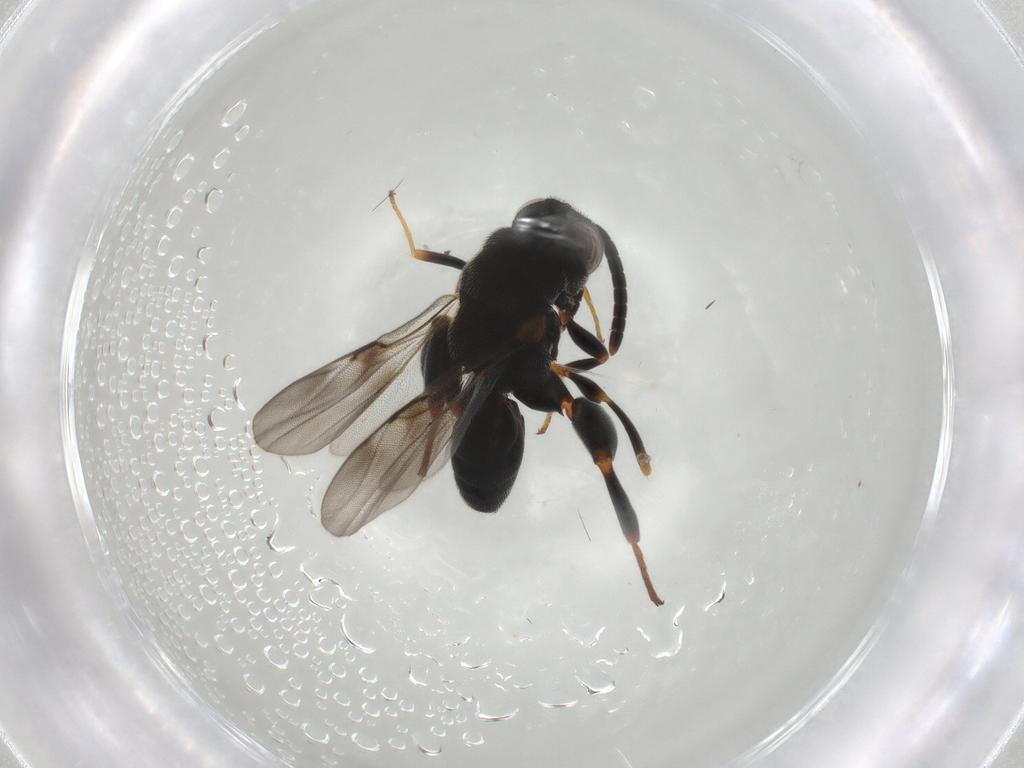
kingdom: Animalia
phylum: Arthropoda
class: Insecta
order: Hymenoptera
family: Chalcididae
